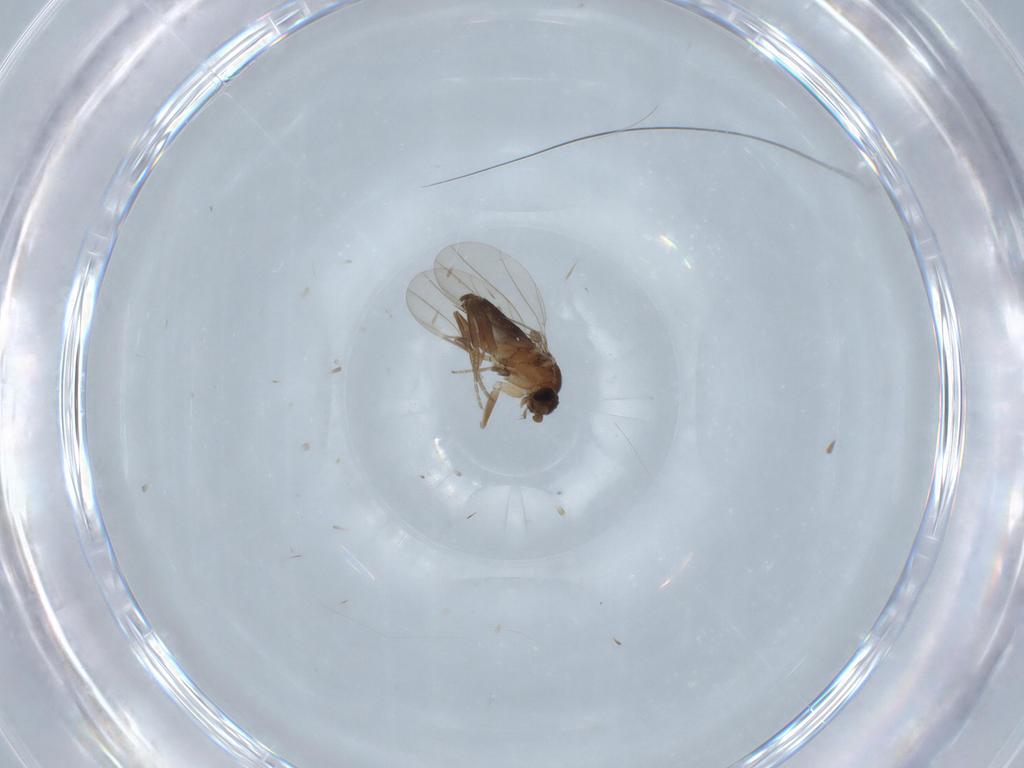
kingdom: Animalia
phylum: Arthropoda
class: Insecta
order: Diptera
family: Phoridae
